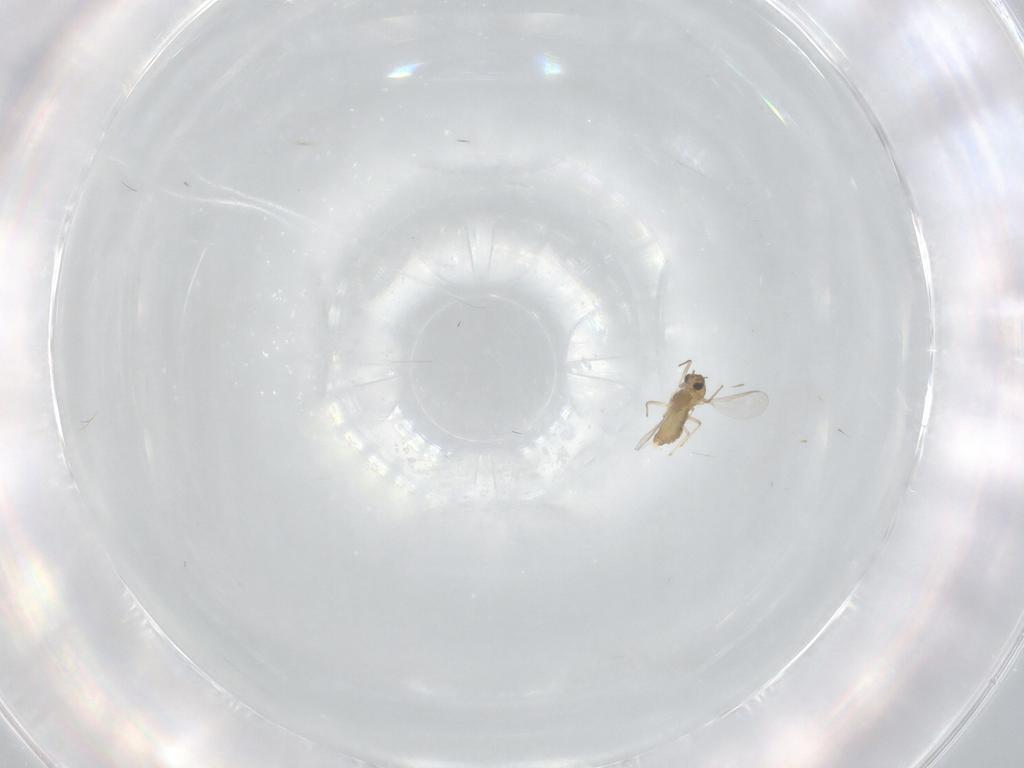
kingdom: Animalia
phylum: Arthropoda
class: Insecta
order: Diptera
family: Chironomidae
